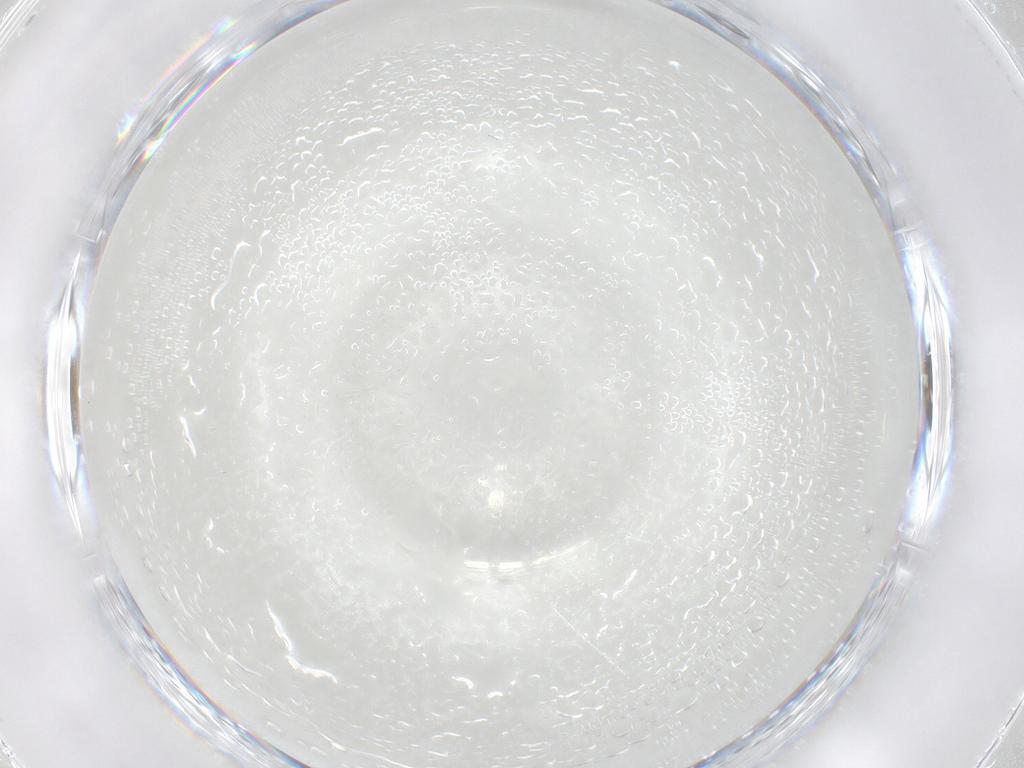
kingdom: Animalia
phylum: Arthropoda
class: Insecta
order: Diptera
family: Chironomidae
